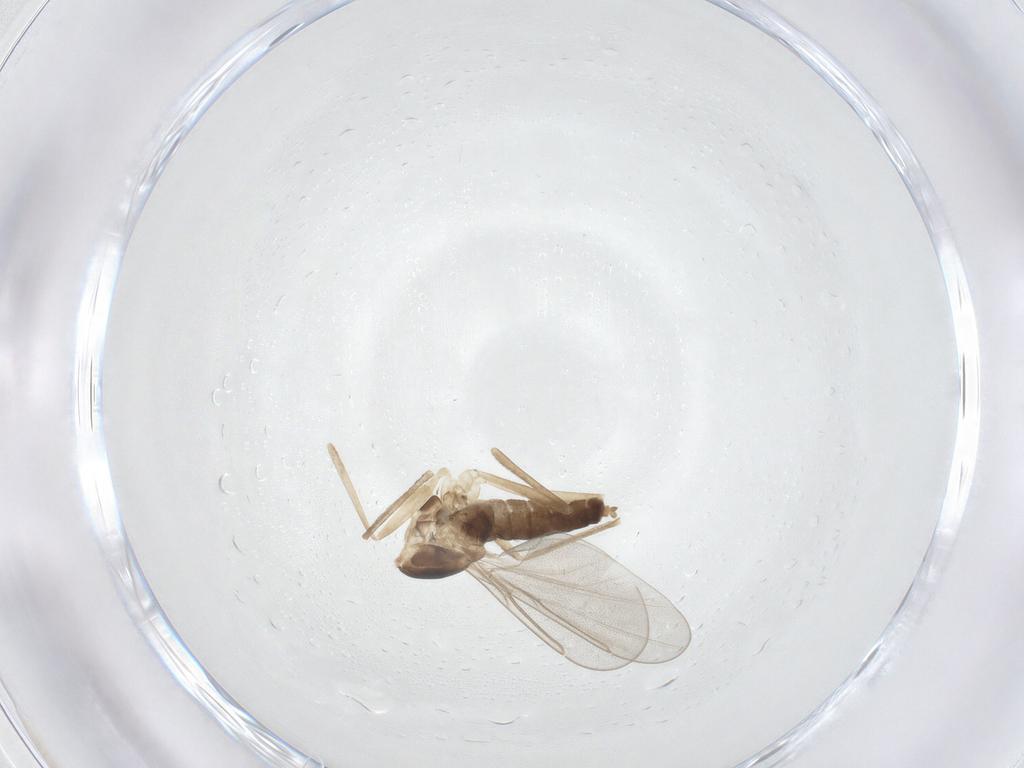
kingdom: Animalia
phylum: Arthropoda
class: Insecta
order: Diptera
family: Cecidomyiidae
